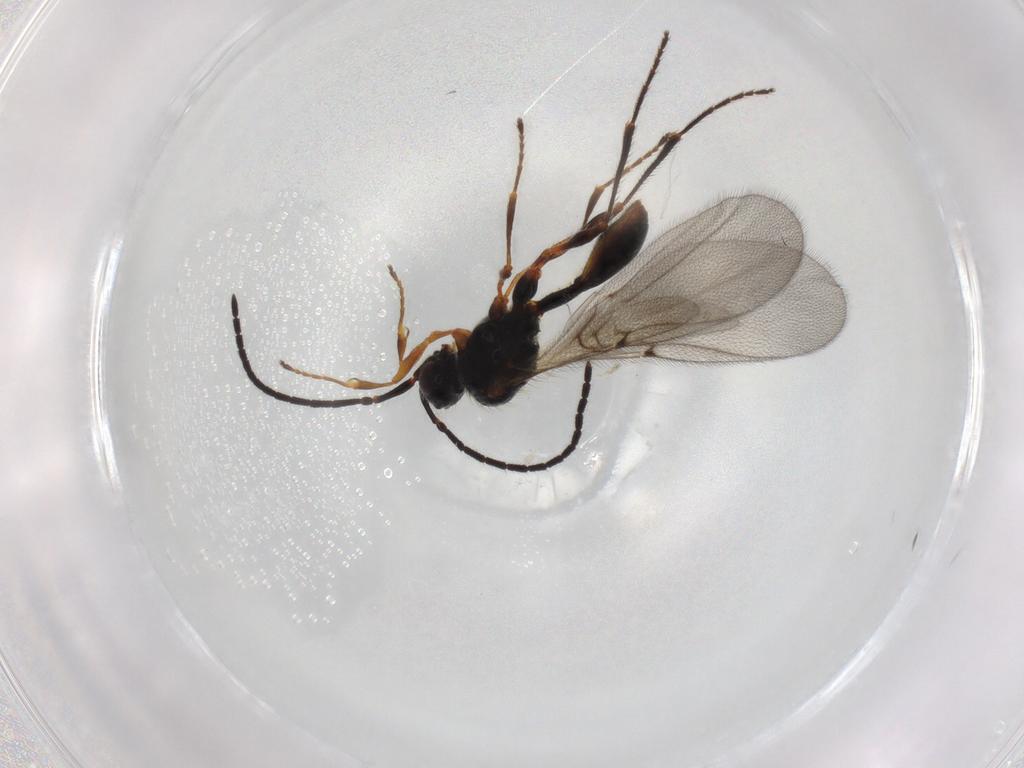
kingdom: Animalia
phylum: Arthropoda
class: Insecta
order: Hymenoptera
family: Diapriidae
